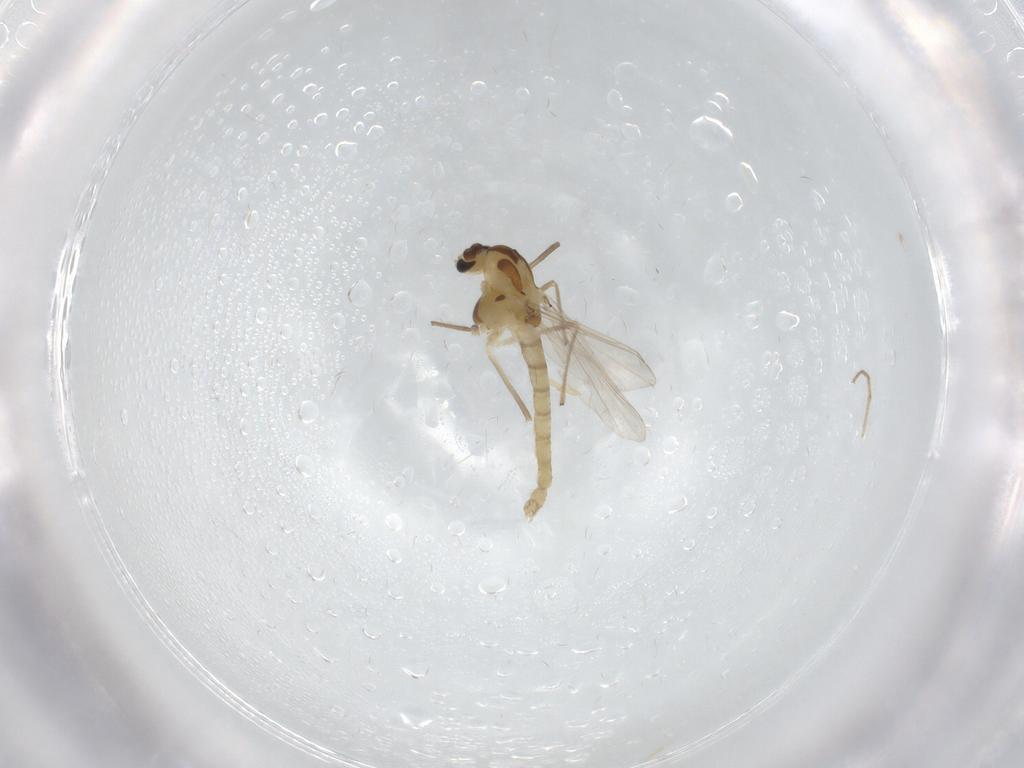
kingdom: Animalia
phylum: Arthropoda
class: Insecta
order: Diptera
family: Chironomidae
